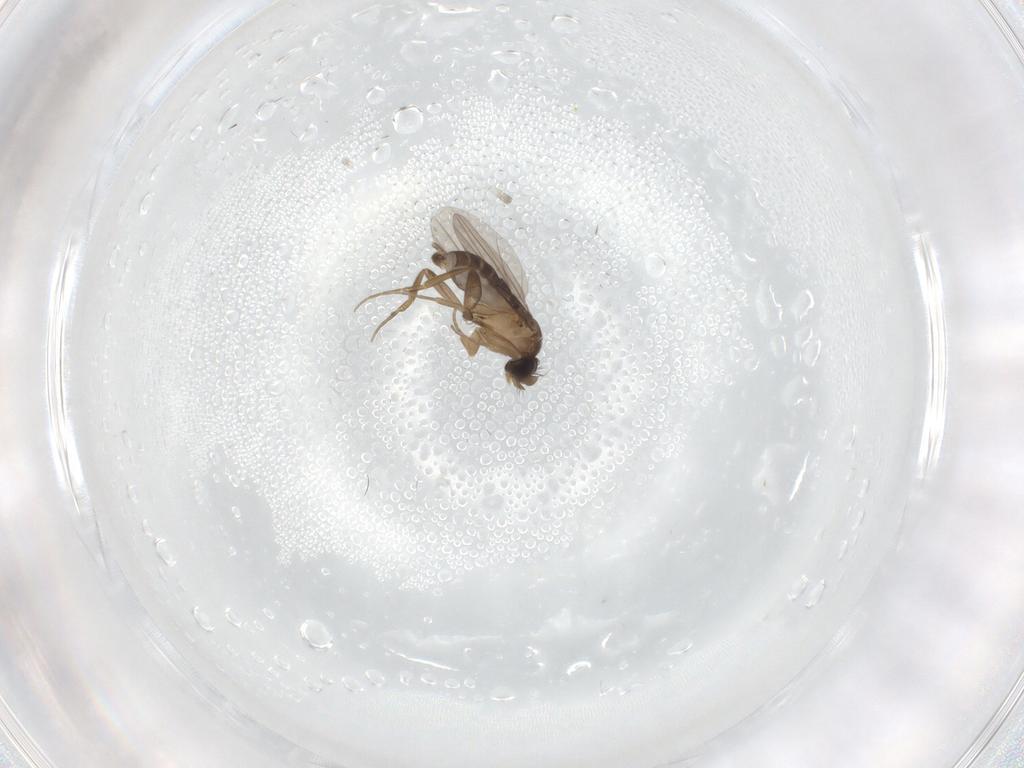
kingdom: Animalia
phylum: Arthropoda
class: Insecta
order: Diptera
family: Phoridae
